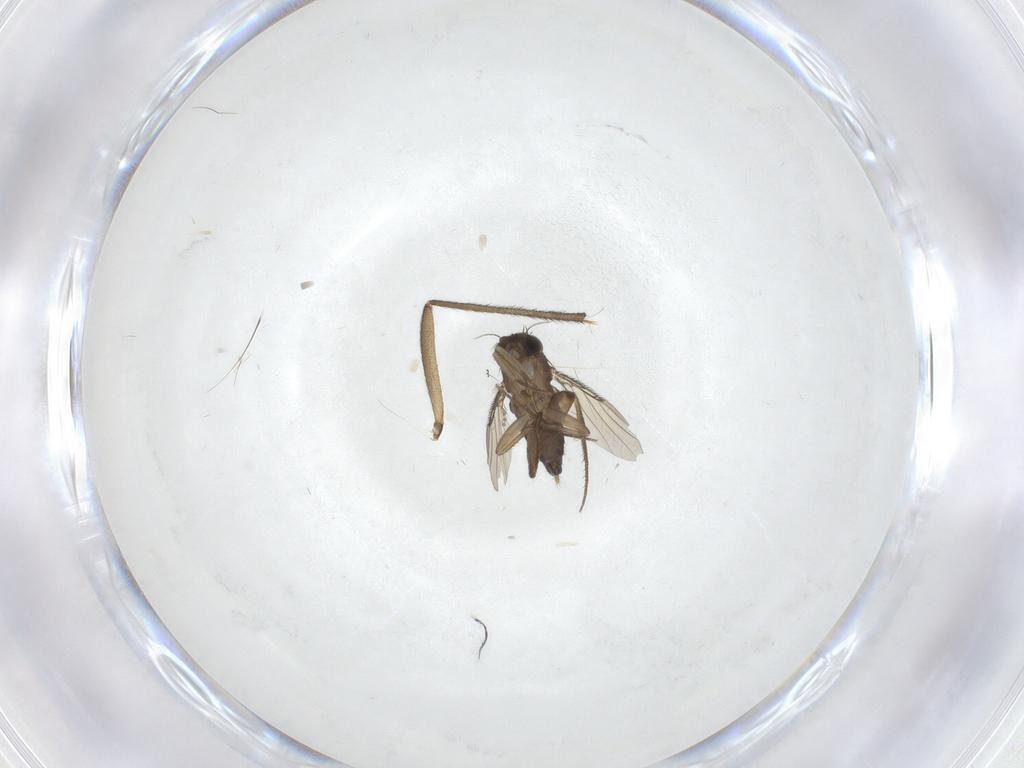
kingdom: Animalia
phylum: Arthropoda
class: Insecta
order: Diptera
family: Phoridae
